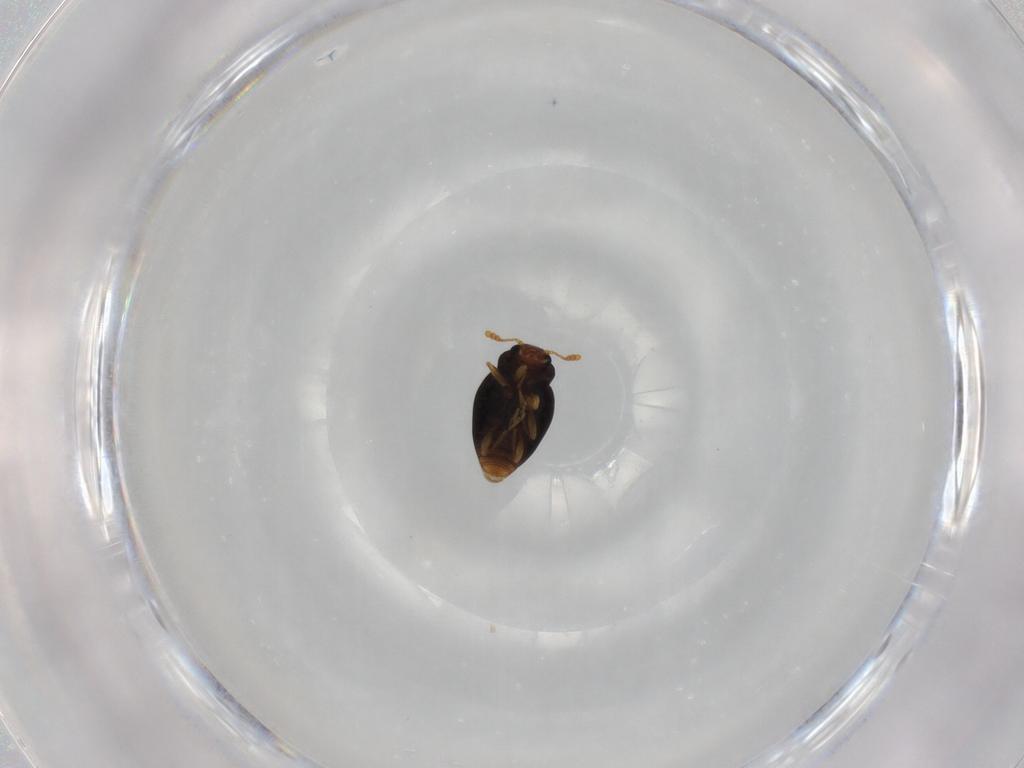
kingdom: Animalia
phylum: Arthropoda
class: Insecta
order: Coleoptera
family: Erotylidae
